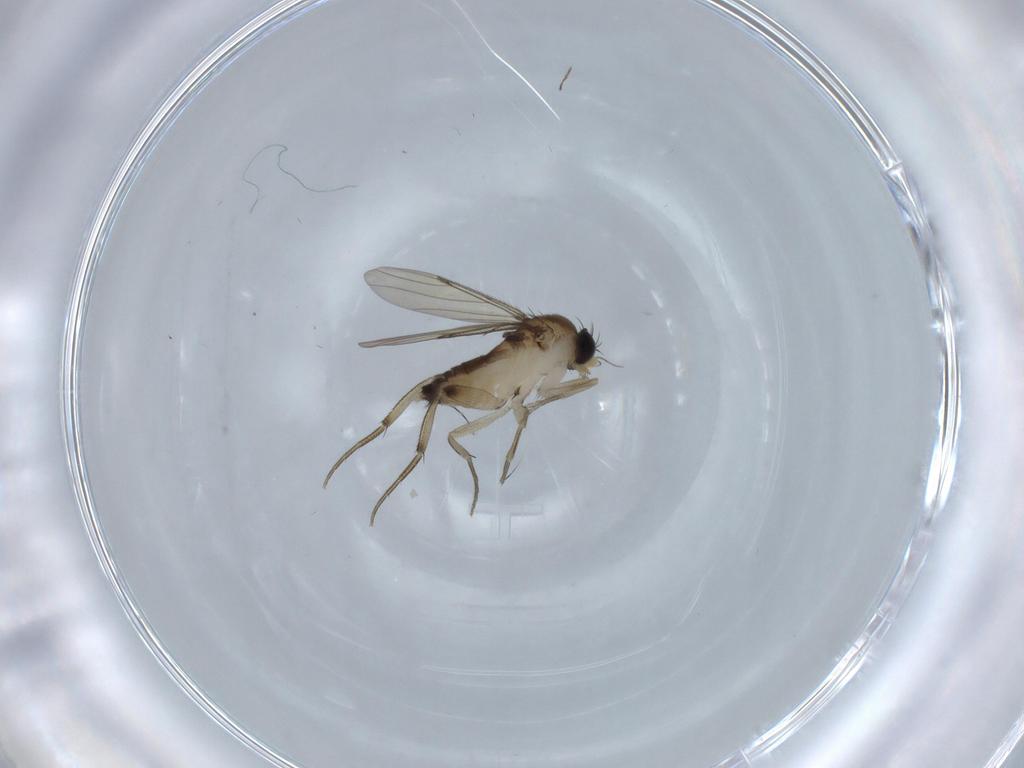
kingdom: Animalia
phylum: Arthropoda
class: Insecta
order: Diptera
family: Phoridae
